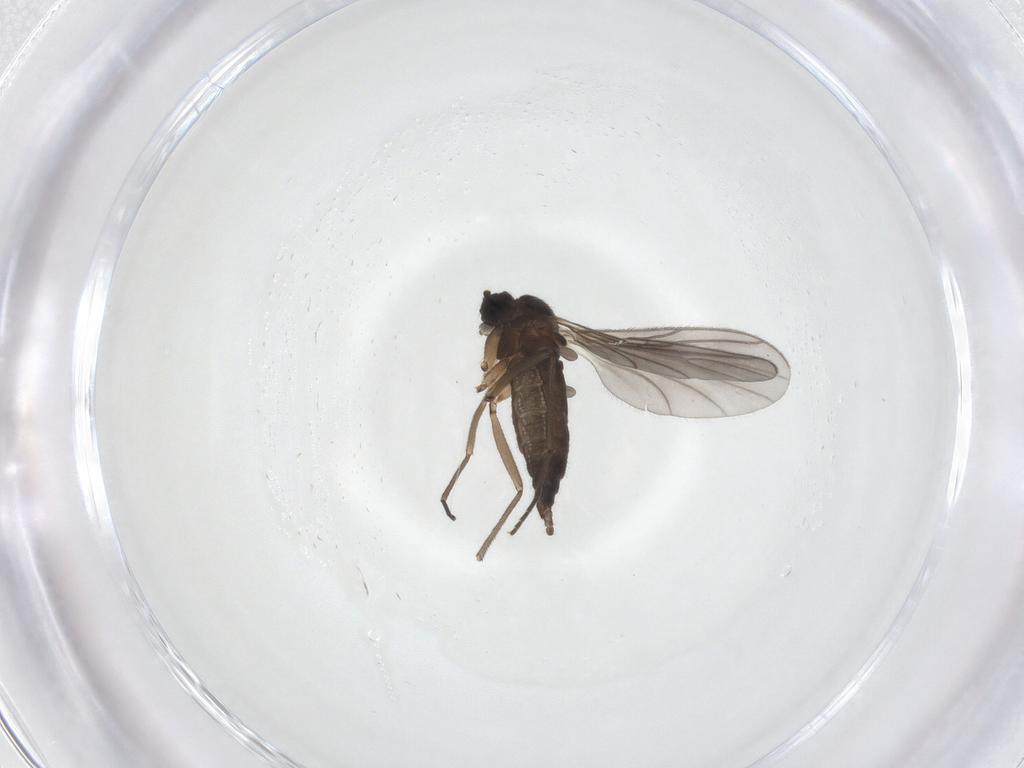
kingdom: Animalia
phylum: Arthropoda
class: Insecta
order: Diptera
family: Sciaridae
